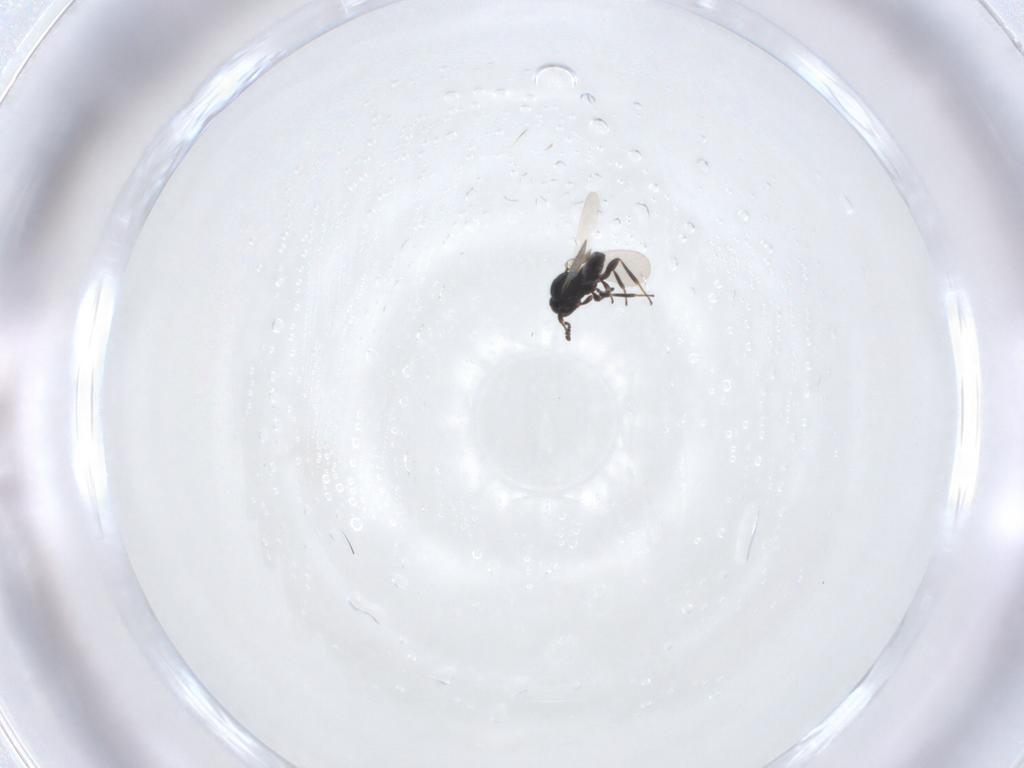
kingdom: Animalia
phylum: Arthropoda
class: Insecta
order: Hymenoptera
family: Platygastridae
